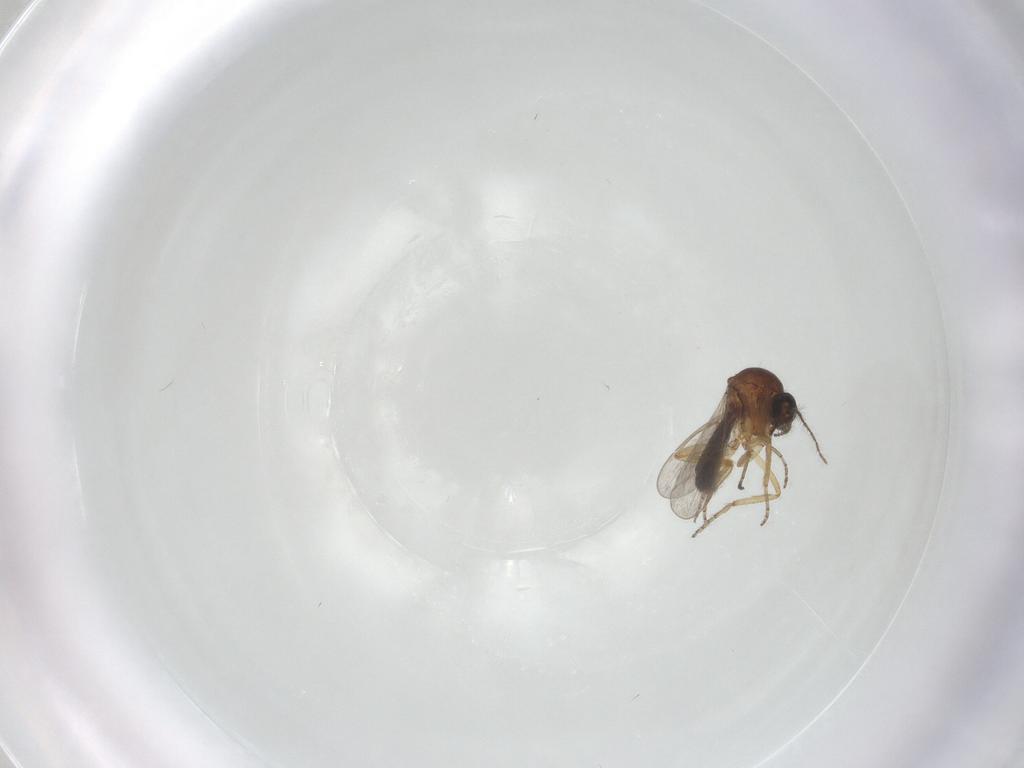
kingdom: Animalia
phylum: Arthropoda
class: Insecta
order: Diptera
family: Ceratopogonidae
